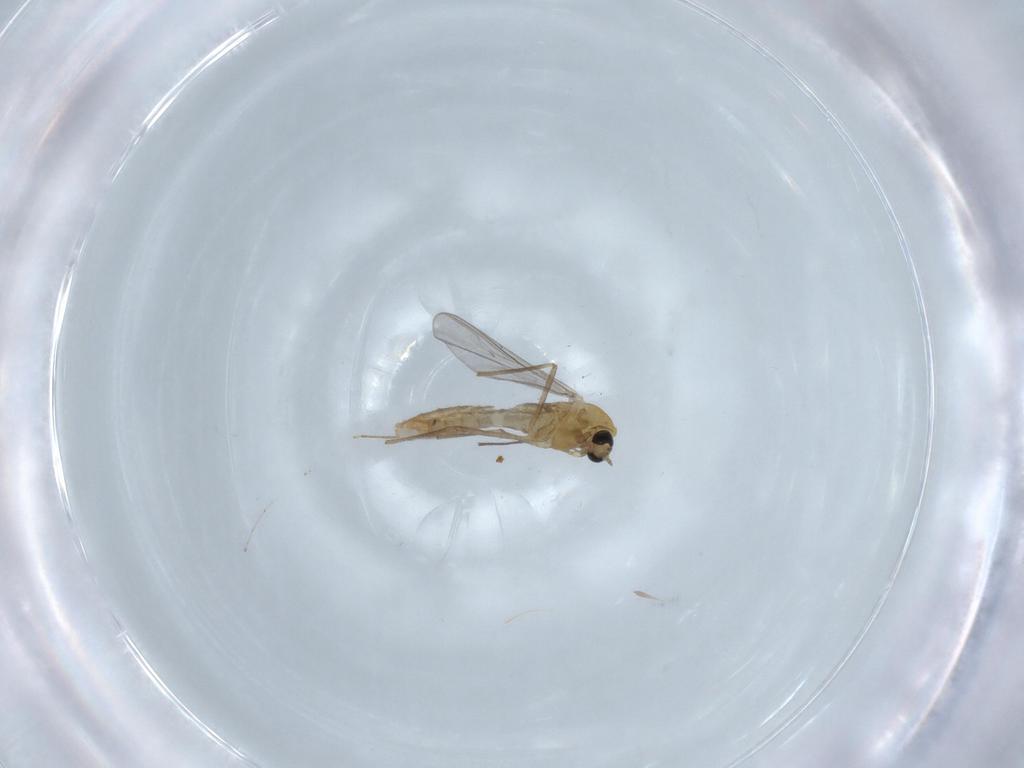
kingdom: Animalia
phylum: Arthropoda
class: Insecta
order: Diptera
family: Chironomidae
